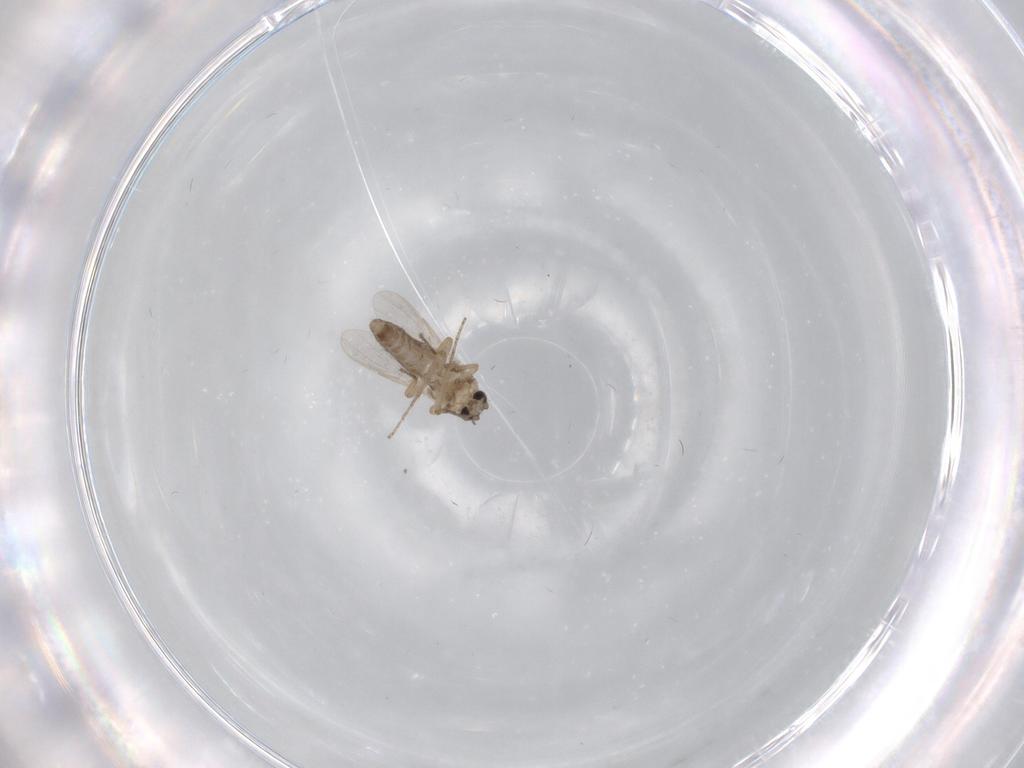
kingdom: Animalia
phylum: Arthropoda
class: Insecta
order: Diptera
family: Ceratopogonidae
